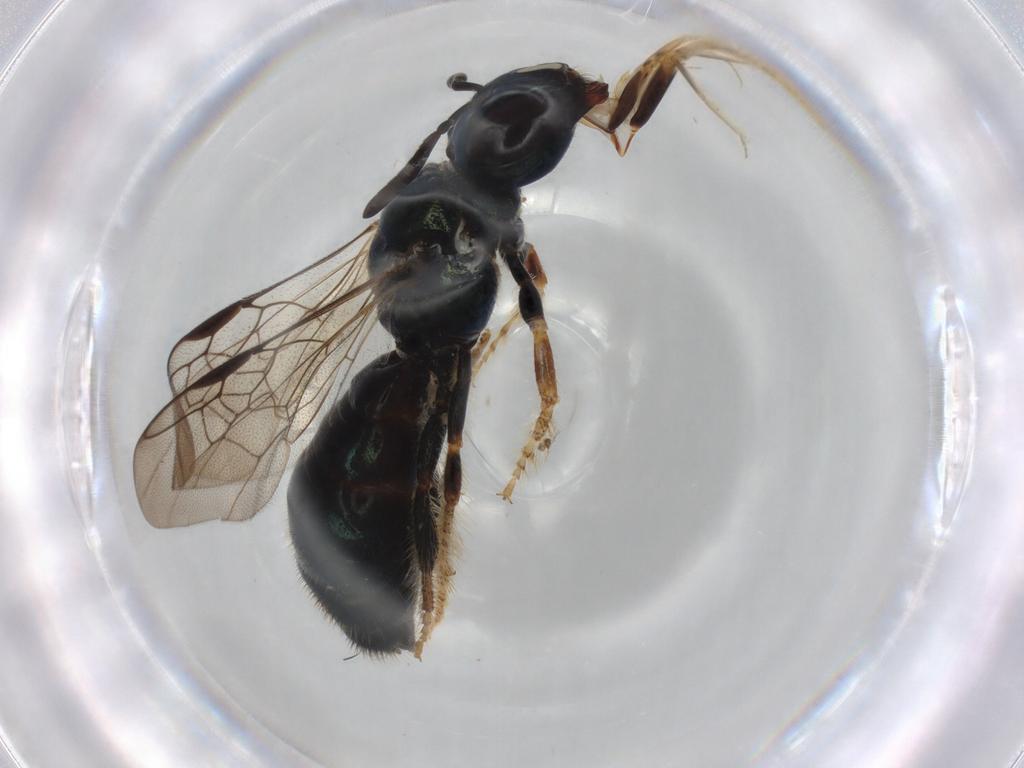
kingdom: Animalia
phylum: Arthropoda
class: Insecta
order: Hymenoptera
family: Apidae
